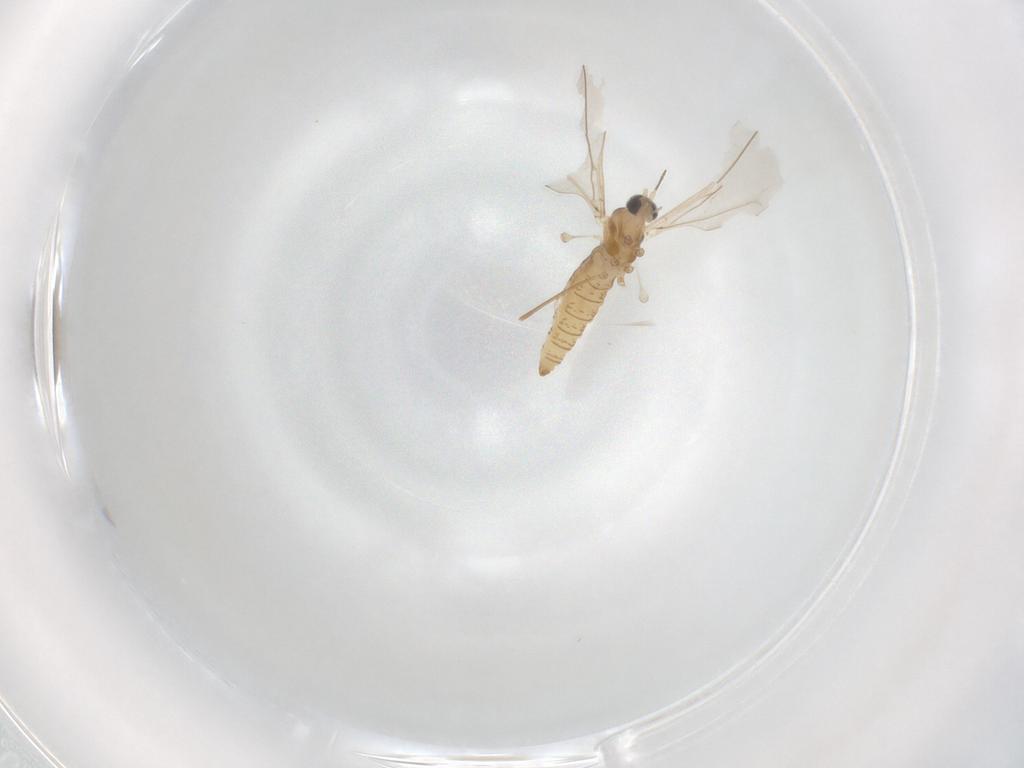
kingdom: Animalia
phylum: Arthropoda
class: Insecta
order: Diptera
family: Cecidomyiidae
